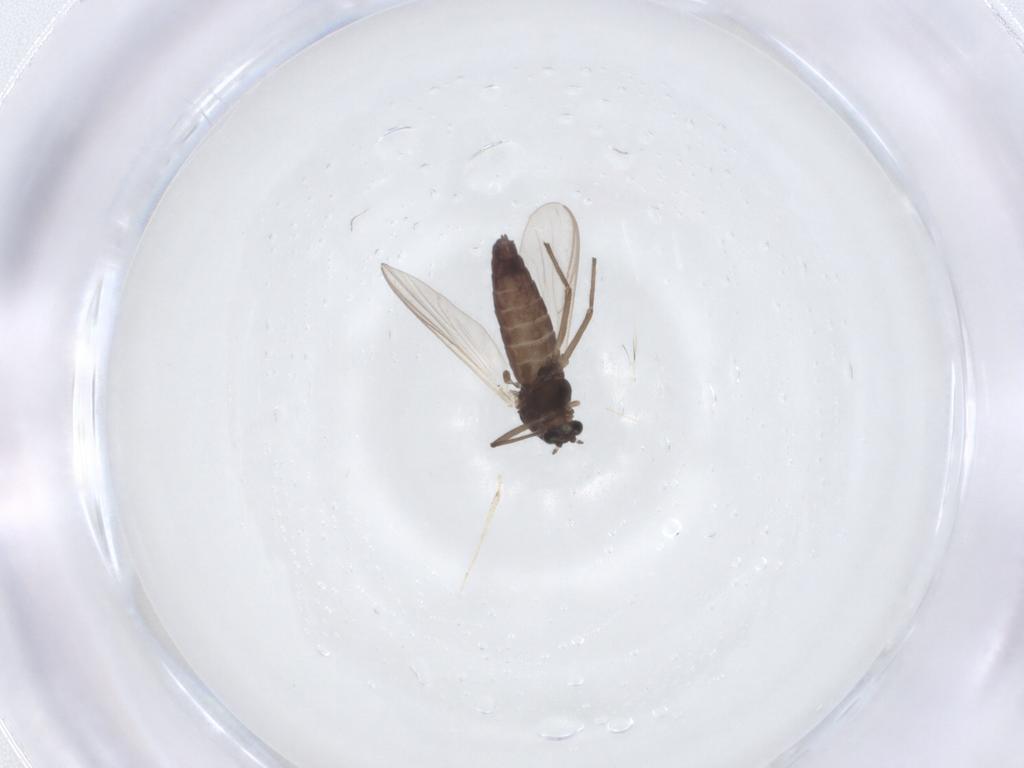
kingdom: Animalia
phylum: Arthropoda
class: Insecta
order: Diptera
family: Chironomidae
